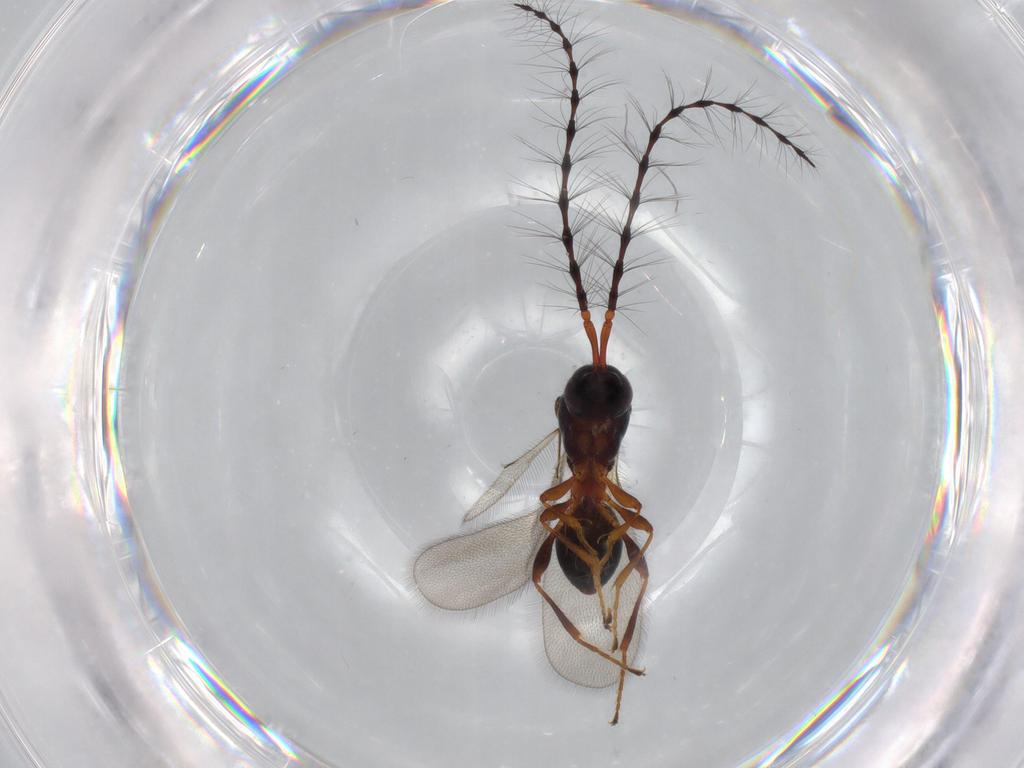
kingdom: Animalia
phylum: Arthropoda
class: Insecta
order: Hymenoptera
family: Diapriidae
